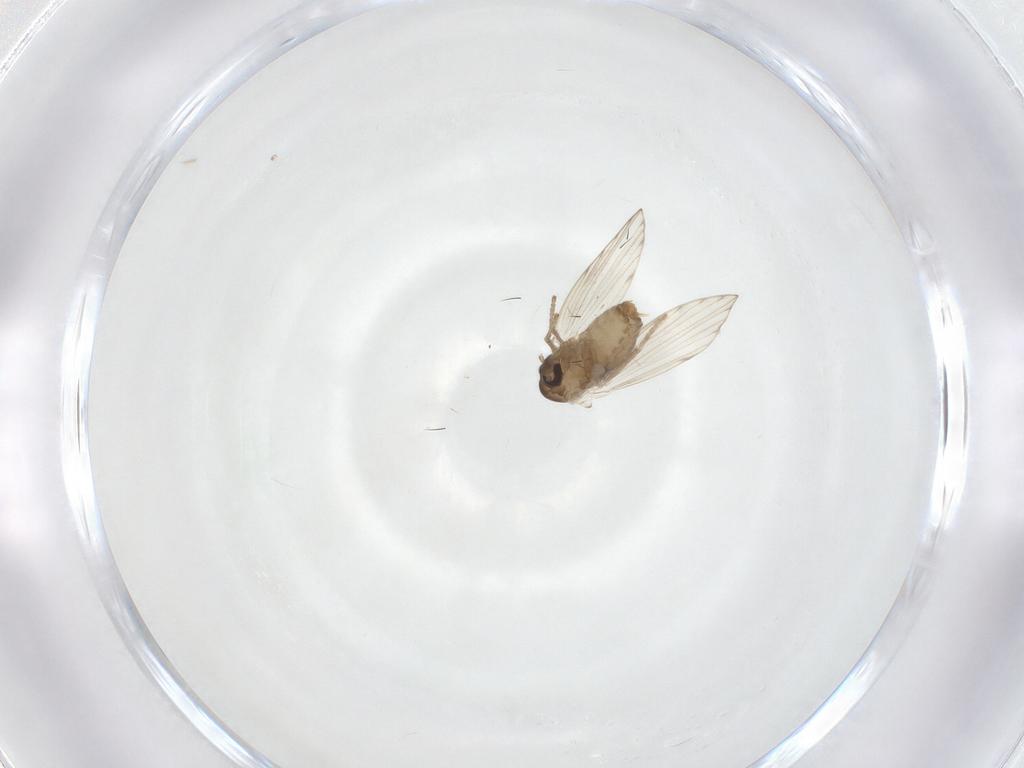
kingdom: Animalia
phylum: Arthropoda
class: Insecta
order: Diptera
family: Psychodidae
